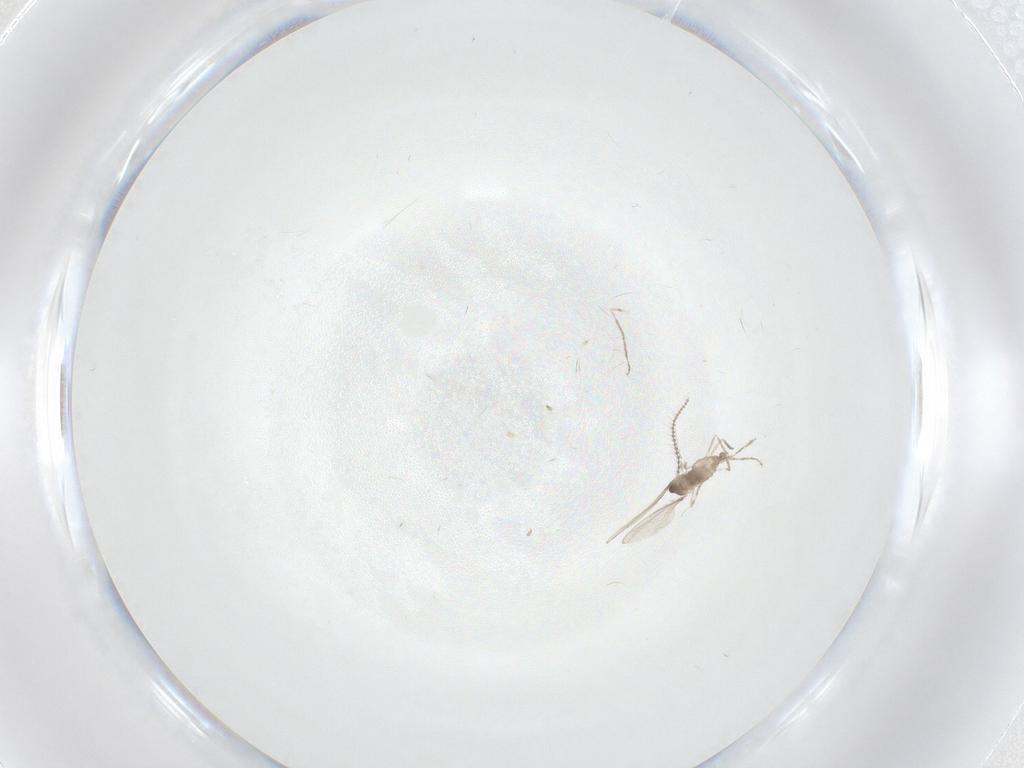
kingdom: Animalia
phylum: Arthropoda
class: Insecta
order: Diptera
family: Cecidomyiidae
